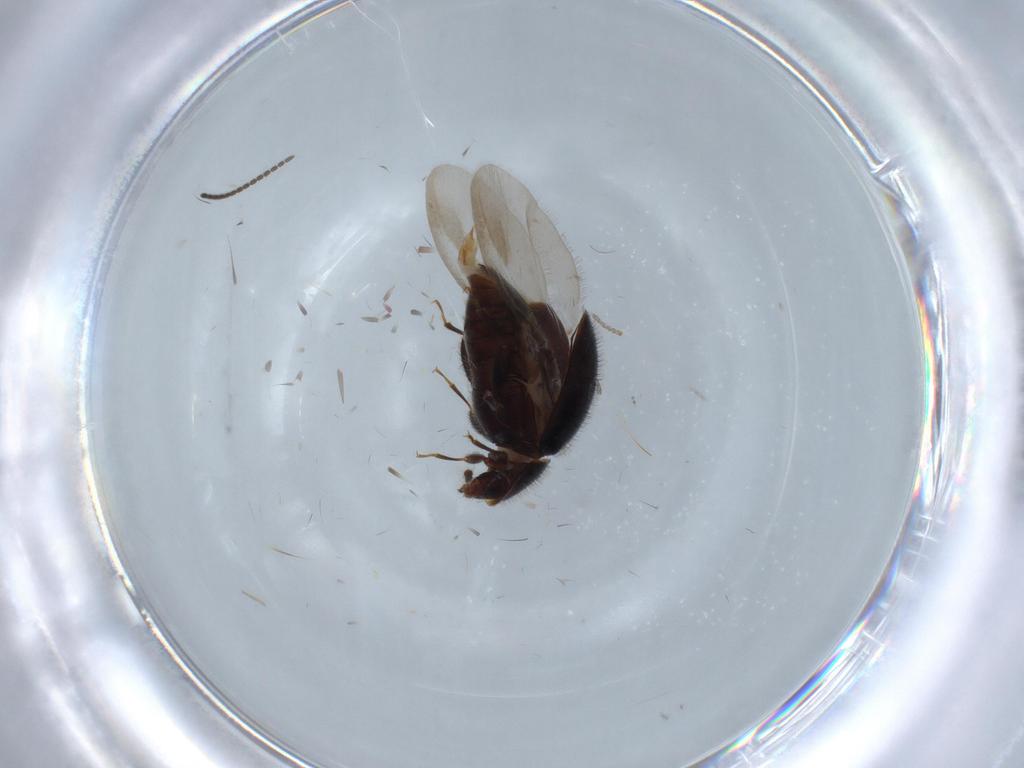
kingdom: Animalia
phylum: Arthropoda
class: Insecta
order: Coleoptera
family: Corylophidae
